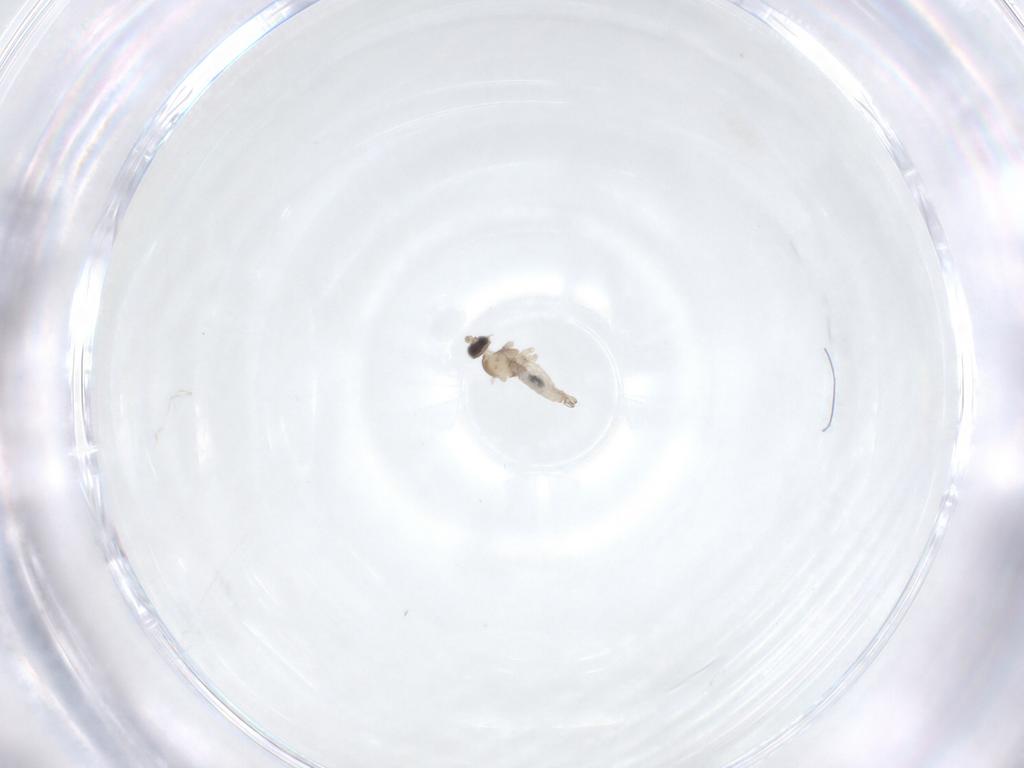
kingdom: Animalia
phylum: Arthropoda
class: Insecta
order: Diptera
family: Cecidomyiidae
